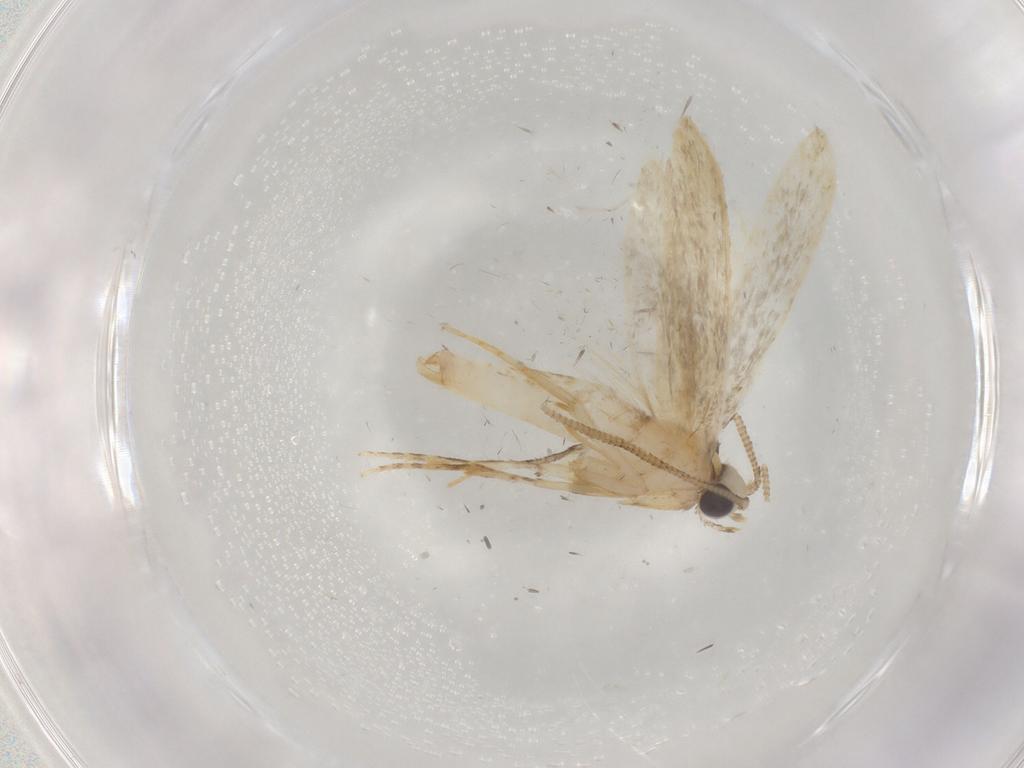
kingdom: Animalia
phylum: Arthropoda
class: Insecta
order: Lepidoptera
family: Tineidae
